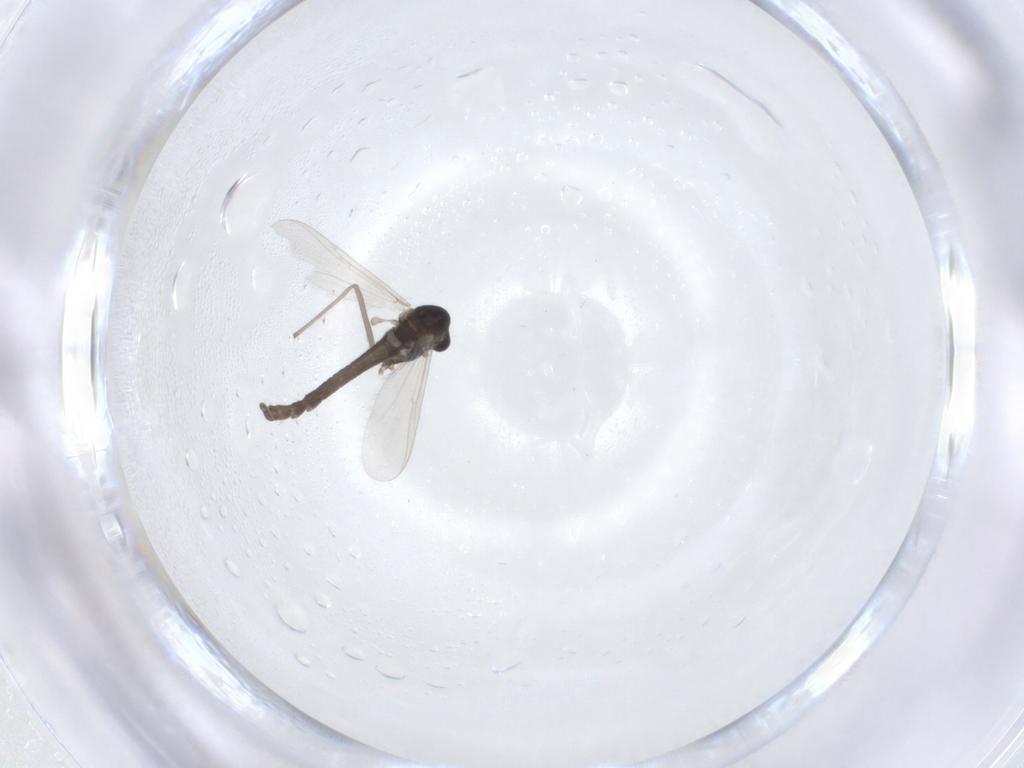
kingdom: Animalia
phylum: Arthropoda
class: Insecta
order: Diptera
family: Chironomidae
